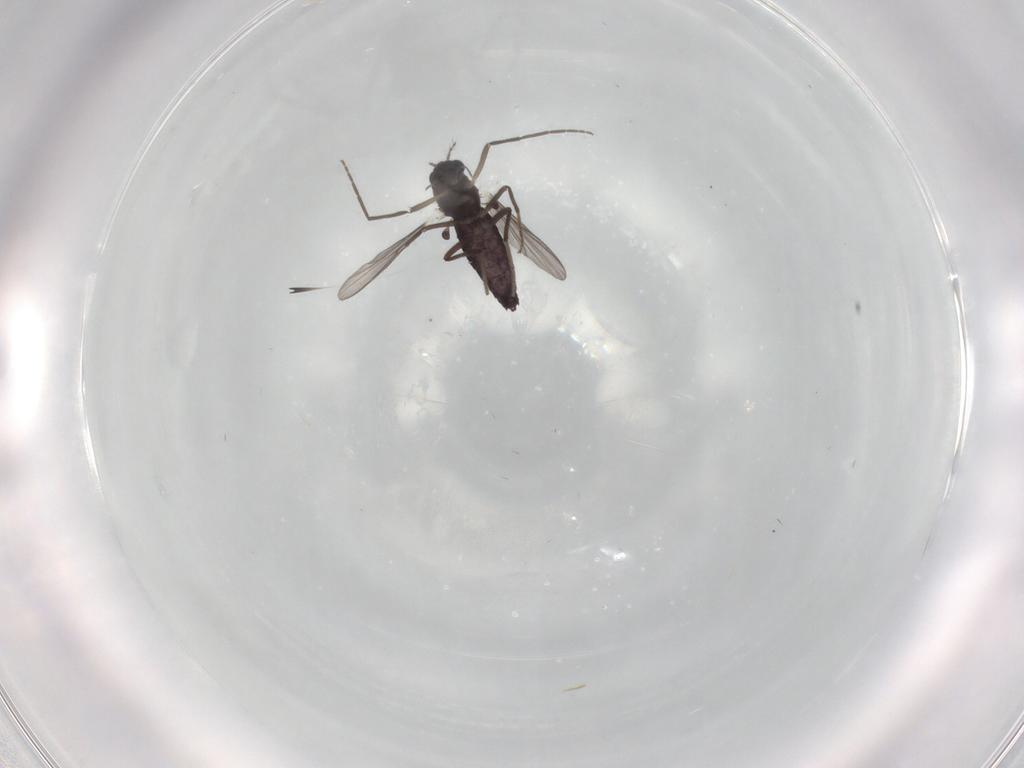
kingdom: Animalia
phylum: Arthropoda
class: Insecta
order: Diptera
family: Chironomidae
